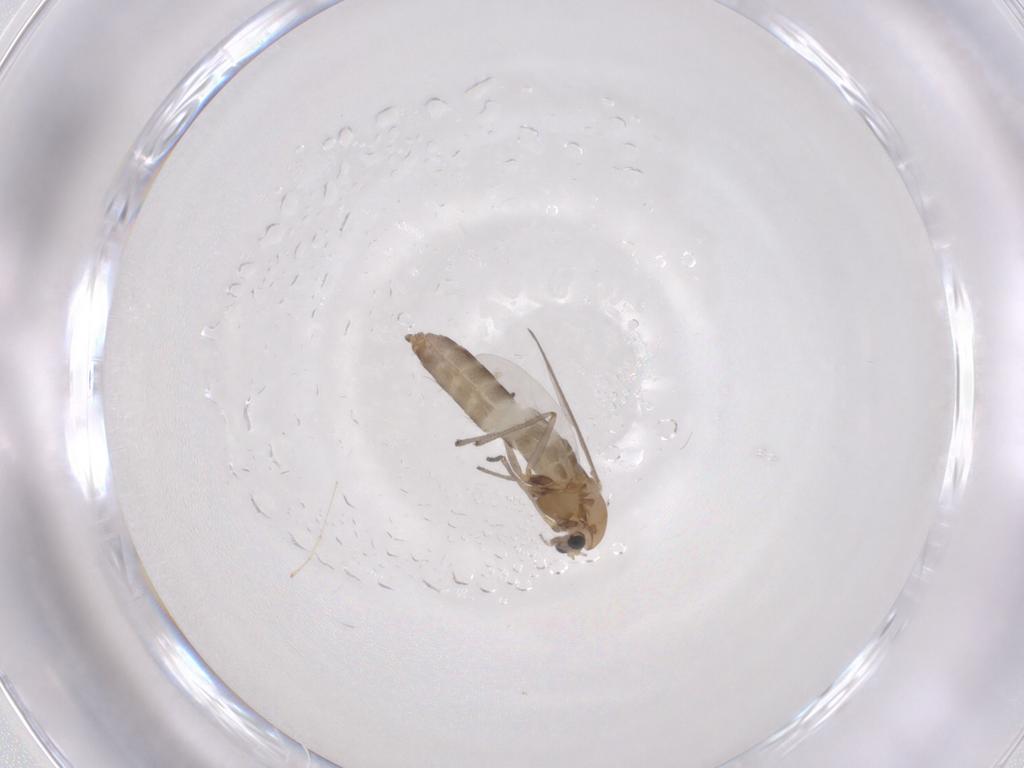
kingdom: Animalia
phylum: Arthropoda
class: Insecta
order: Diptera
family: Chironomidae
